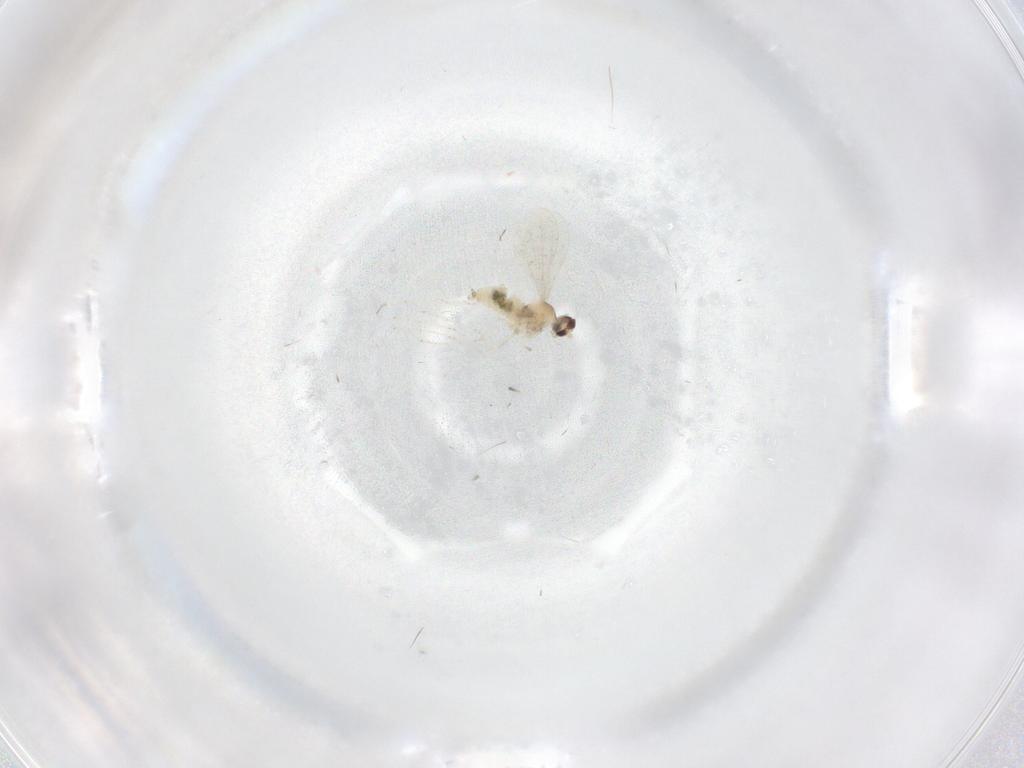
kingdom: Animalia
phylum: Arthropoda
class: Insecta
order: Diptera
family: Cecidomyiidae
